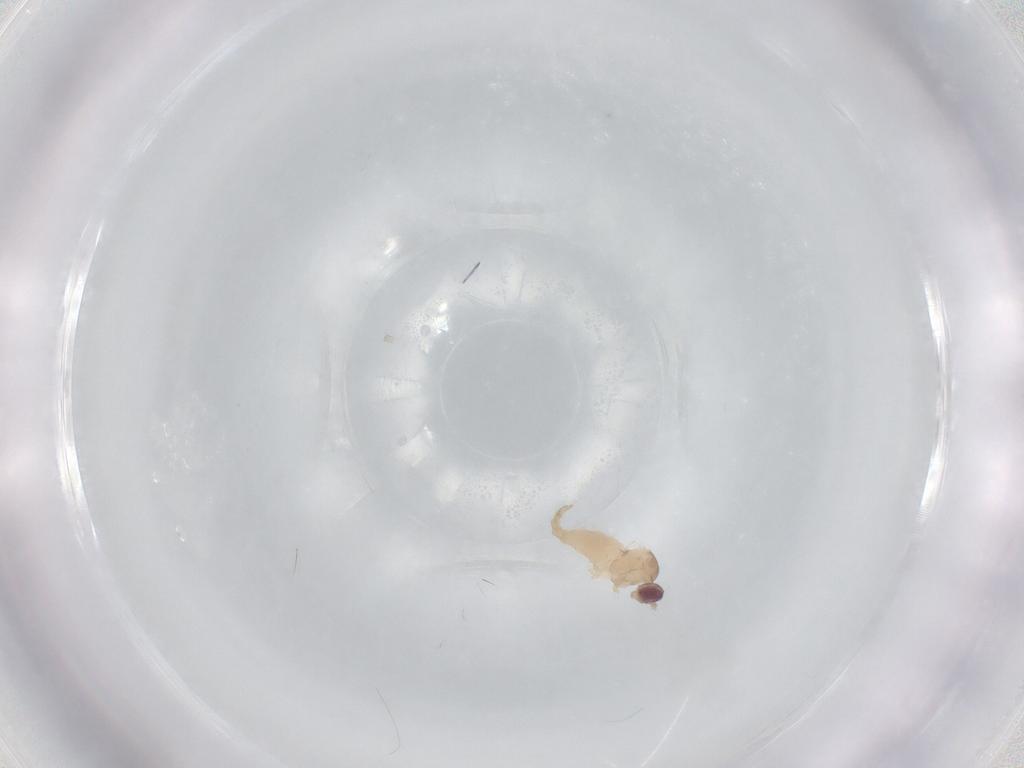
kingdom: Animalia
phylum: Arthropoda
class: Insecta
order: Diptera
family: Cecidomyiidae
